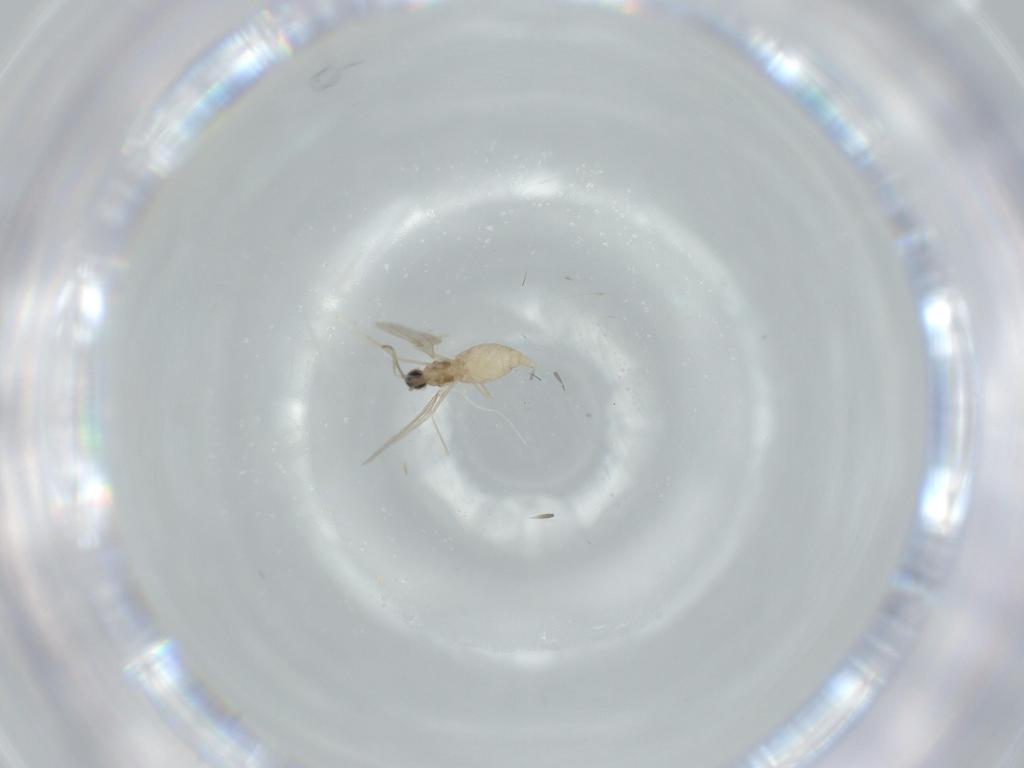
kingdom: Animalia
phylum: Arthropoda
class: Insecta
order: Diptera
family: Cecidomyiidae
